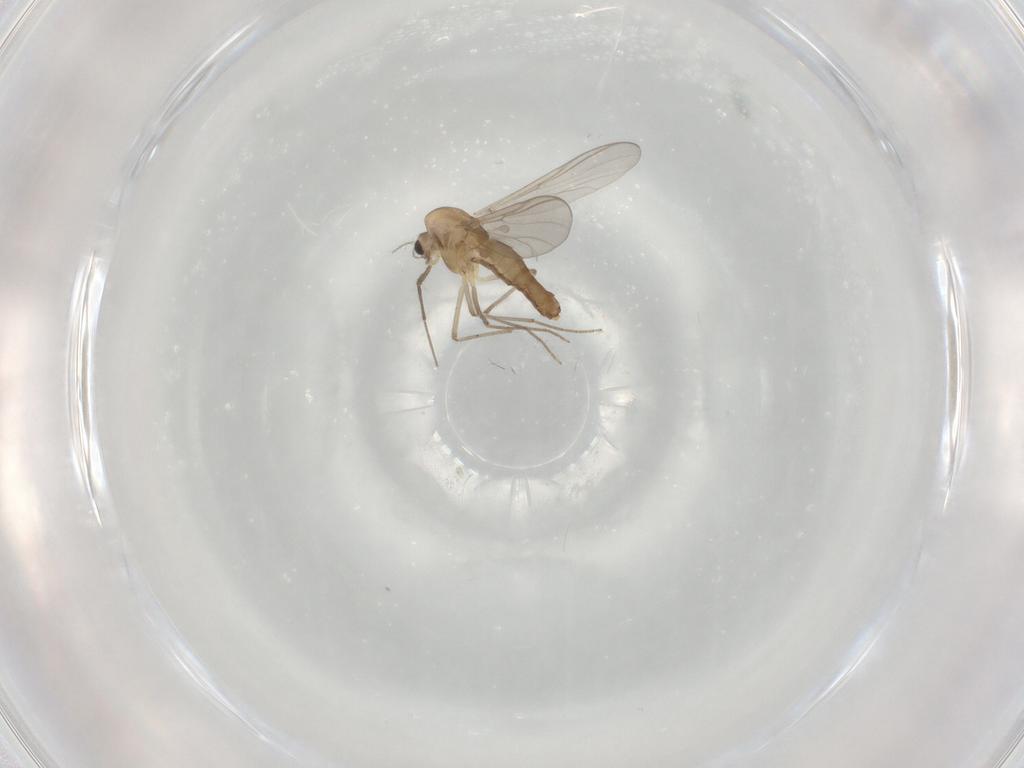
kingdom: Animalia
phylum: Arthropoda
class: Insecta
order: Diptera
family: Chironomidae
